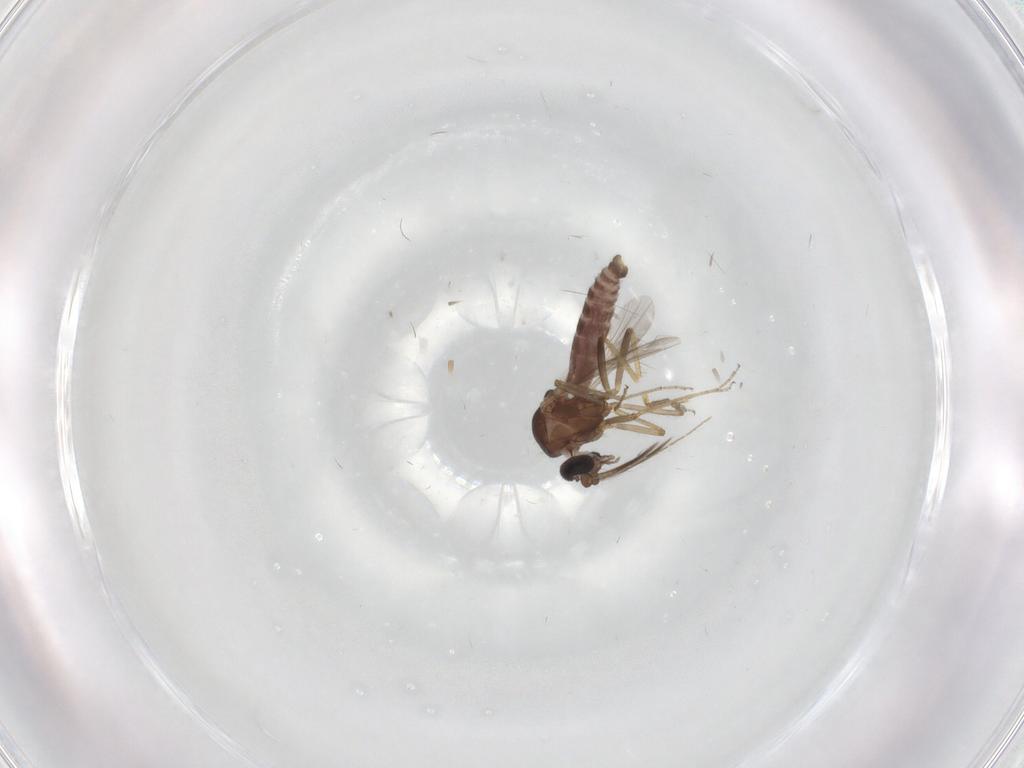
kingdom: Animalia
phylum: Arthropoda
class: Insecta
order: Diptera
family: Ceratopogonidae
